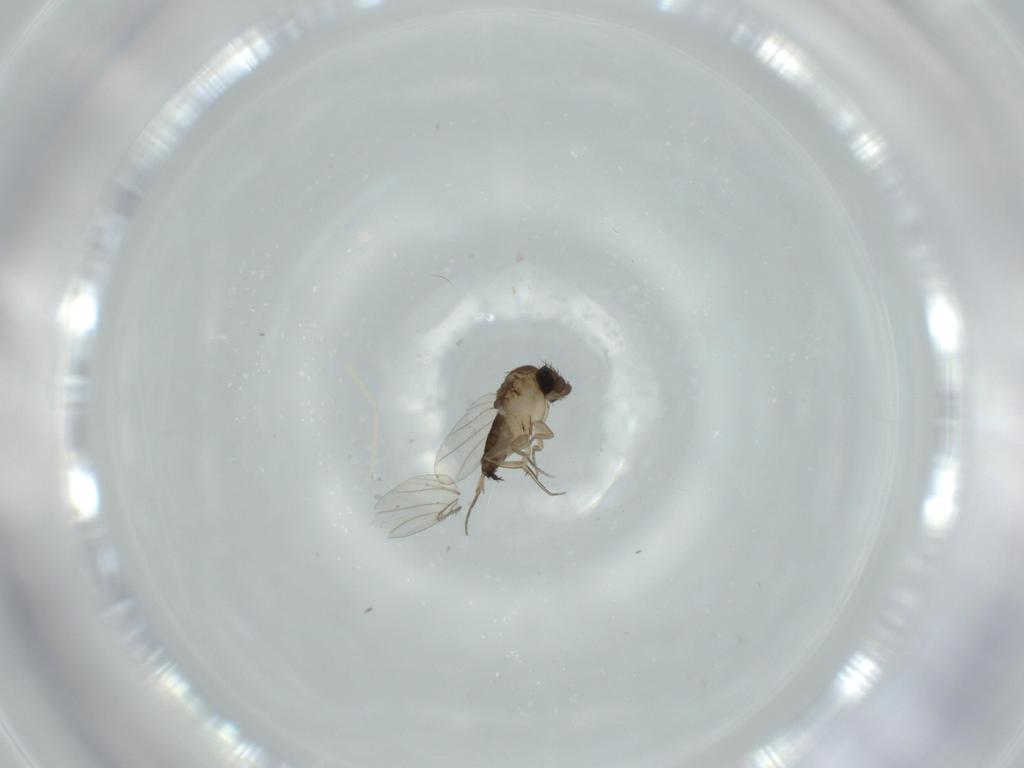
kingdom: Animalia
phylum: Arthropoda
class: Insecta
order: Diptera
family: Phoridae
